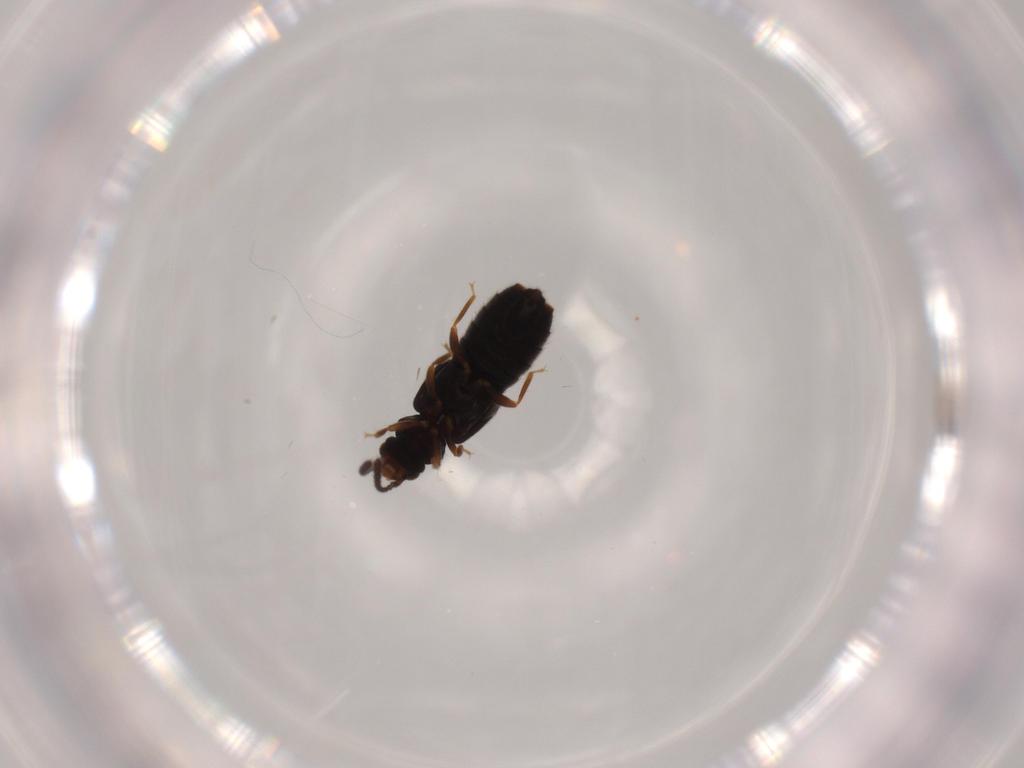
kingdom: Animalia
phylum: Arthropoda
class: Insecta
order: Coleoptera
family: Staphylinidae
